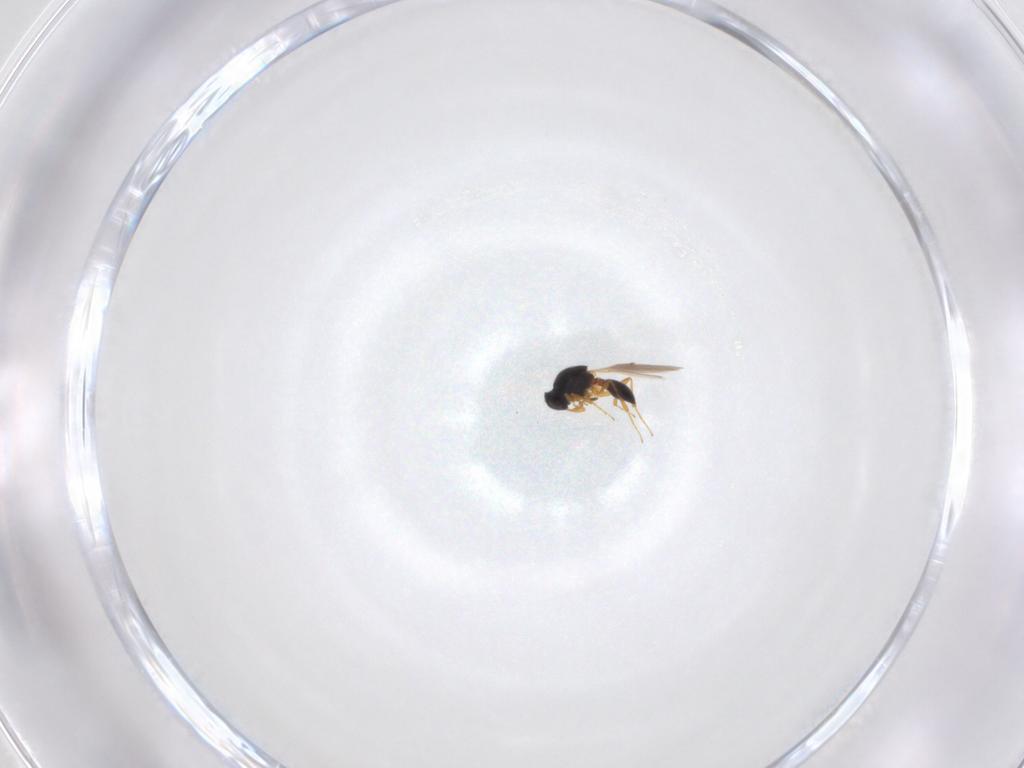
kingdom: Animalia
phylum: Arthropoda
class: Insecta
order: Hymenoptera
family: Platygastridae
